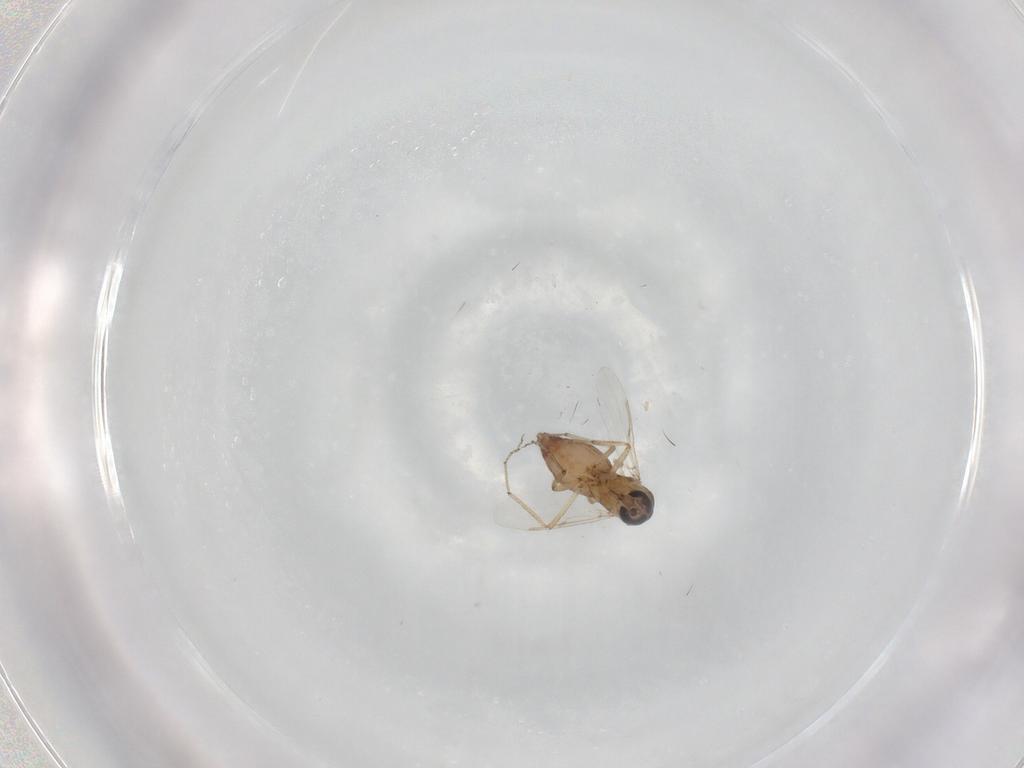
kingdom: Animalia
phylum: Arthropoda
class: Insecta
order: Diptera
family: Ceratopogonidae
